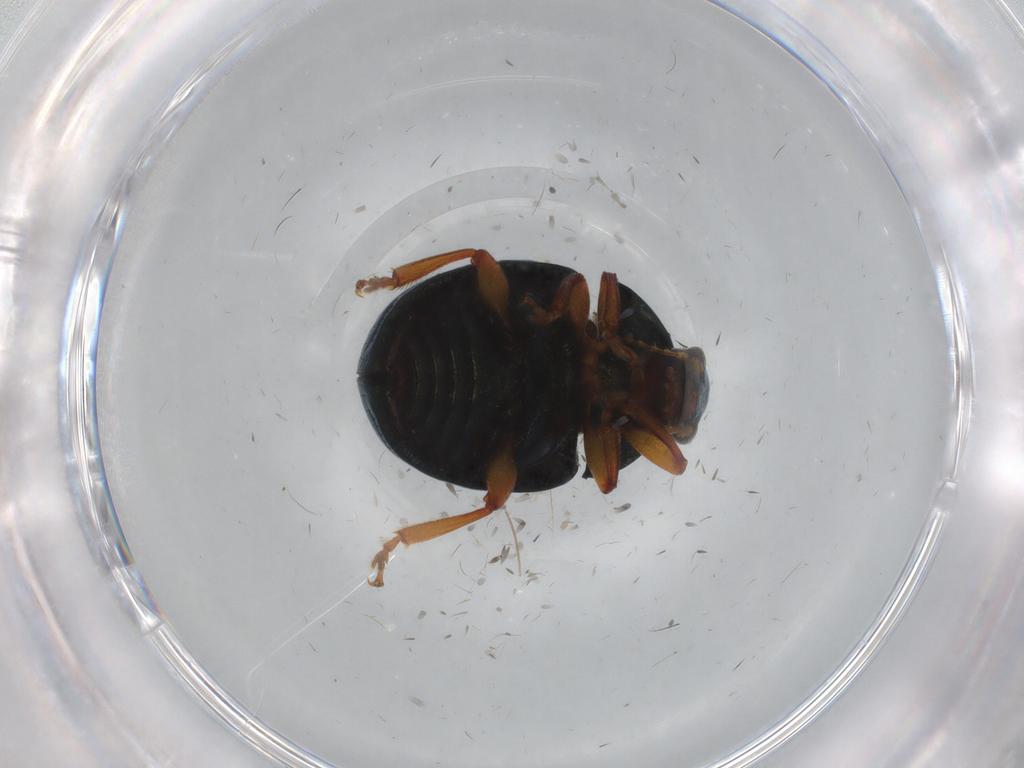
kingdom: Animalia
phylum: Arthropoda
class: Insecta
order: Coleoptera
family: Chrysomelidae
